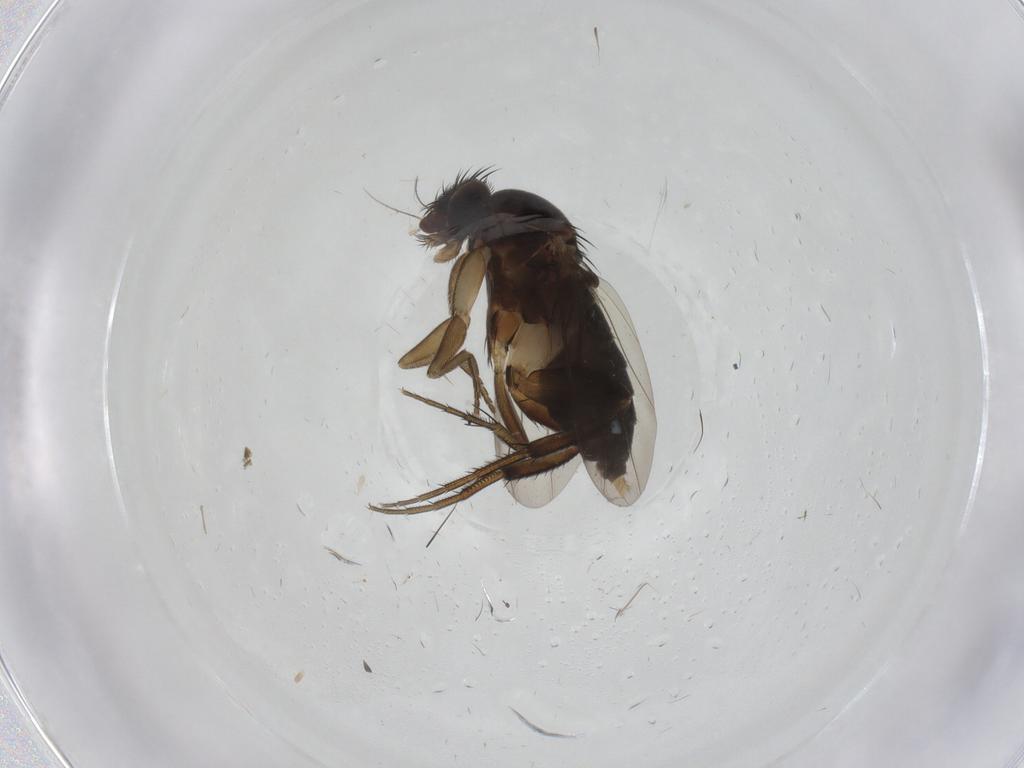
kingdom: Animalia
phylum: Arthropoda
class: Insecta
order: Diptera
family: Phoridae
